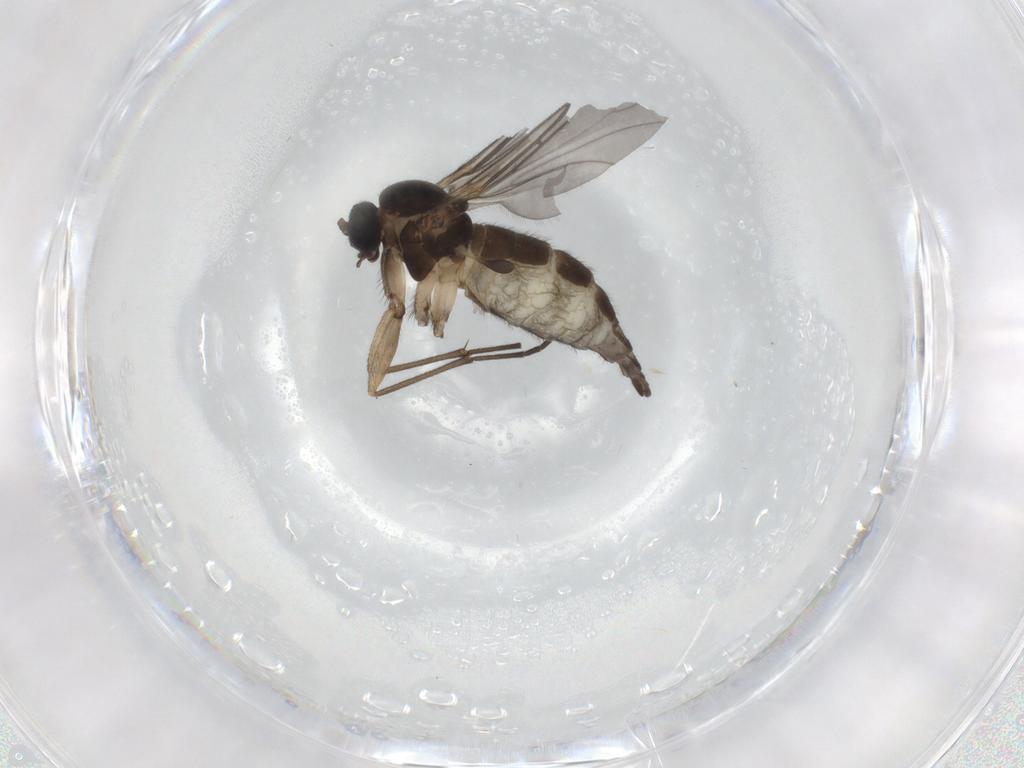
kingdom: Animalia
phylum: Arthropoda
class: Insecta
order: Diptera
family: Sciaridae
